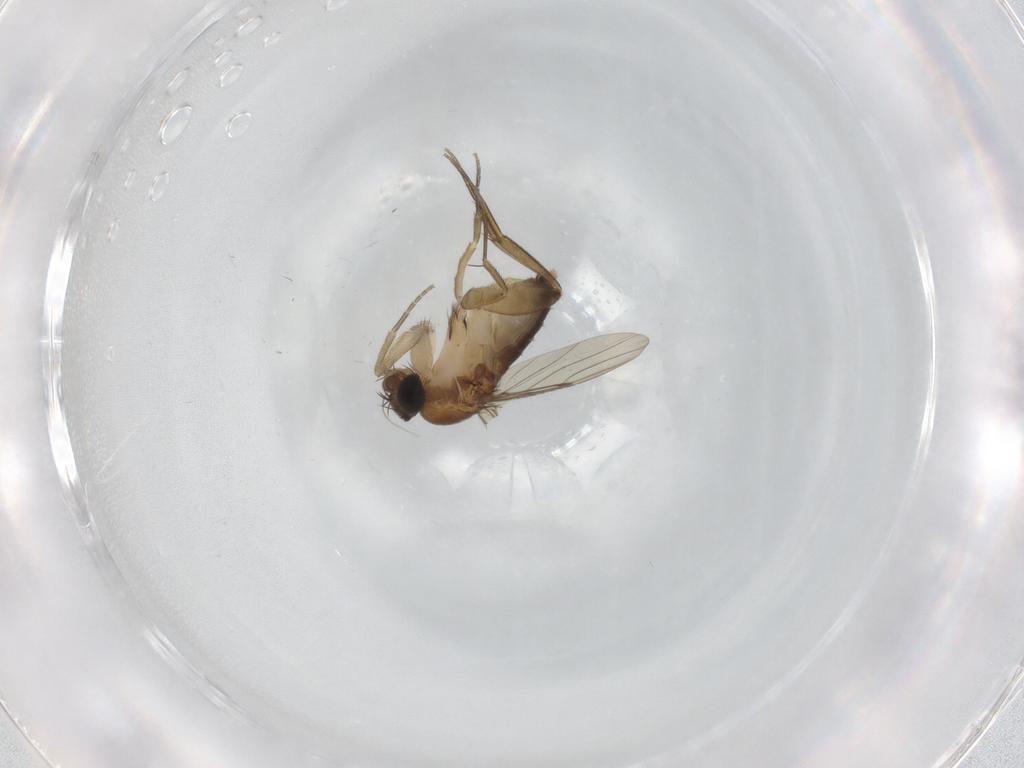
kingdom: Animalia
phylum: Arthropoda
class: Insecta
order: Diptera
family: Phoridae
